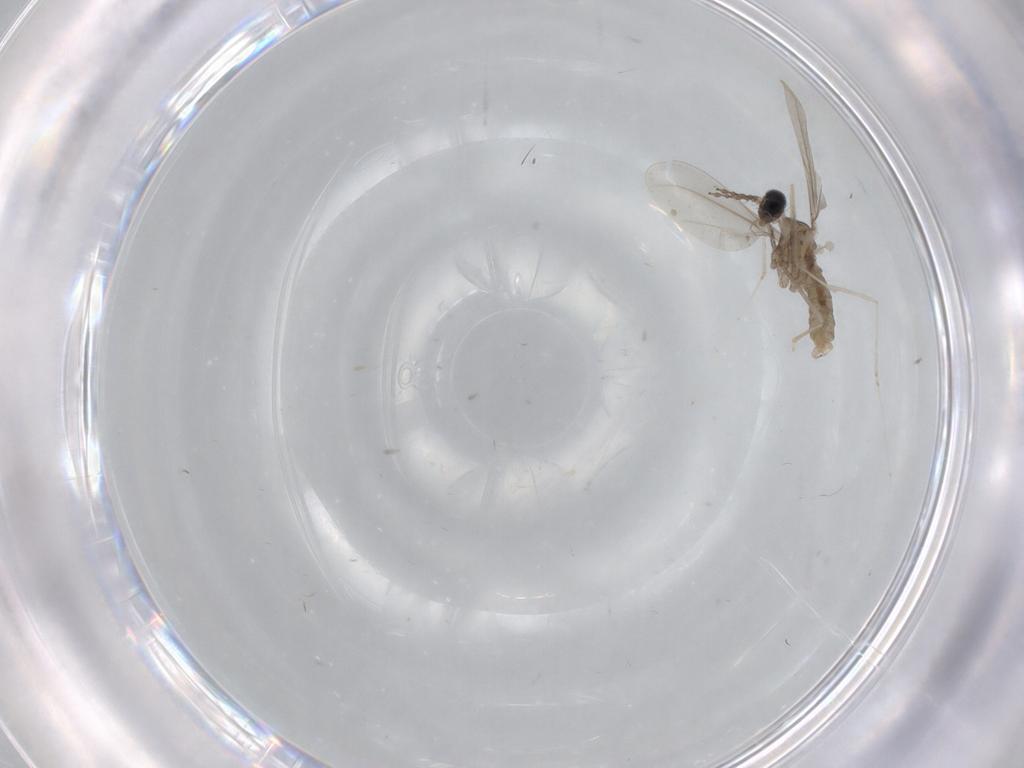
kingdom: Animalia
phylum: Arthropoda
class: Insecta
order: Diptera
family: Cecidomyiidae
